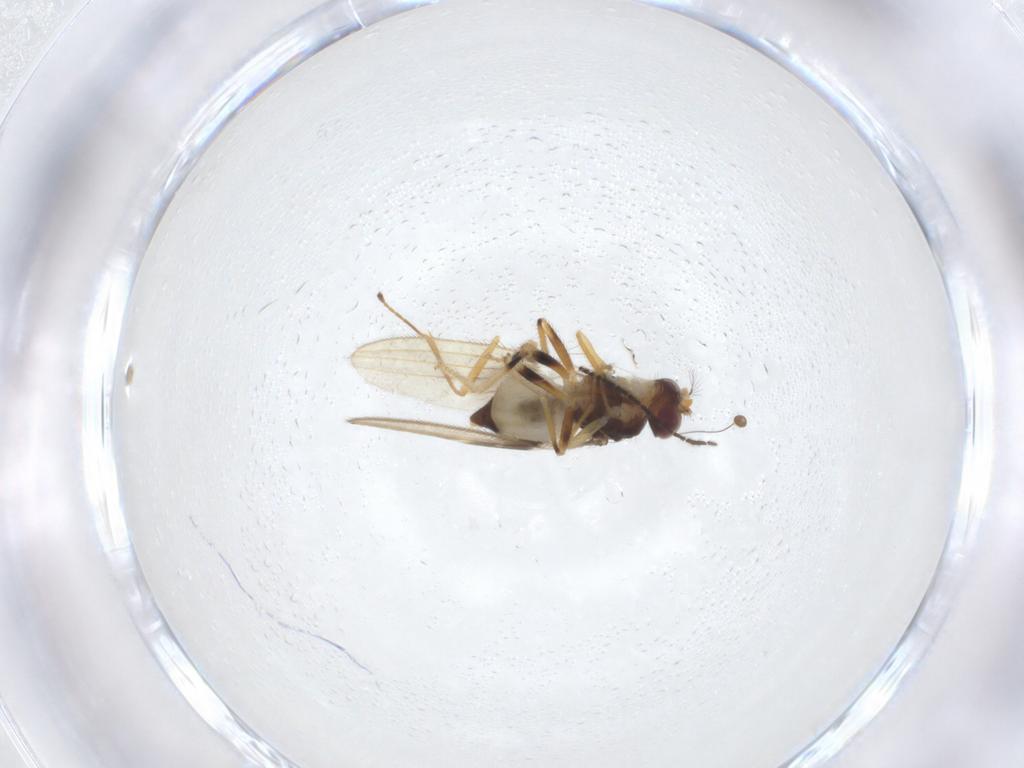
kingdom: Animalia
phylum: Arthropoda
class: Insecta
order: Diptera
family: Periscelididae
